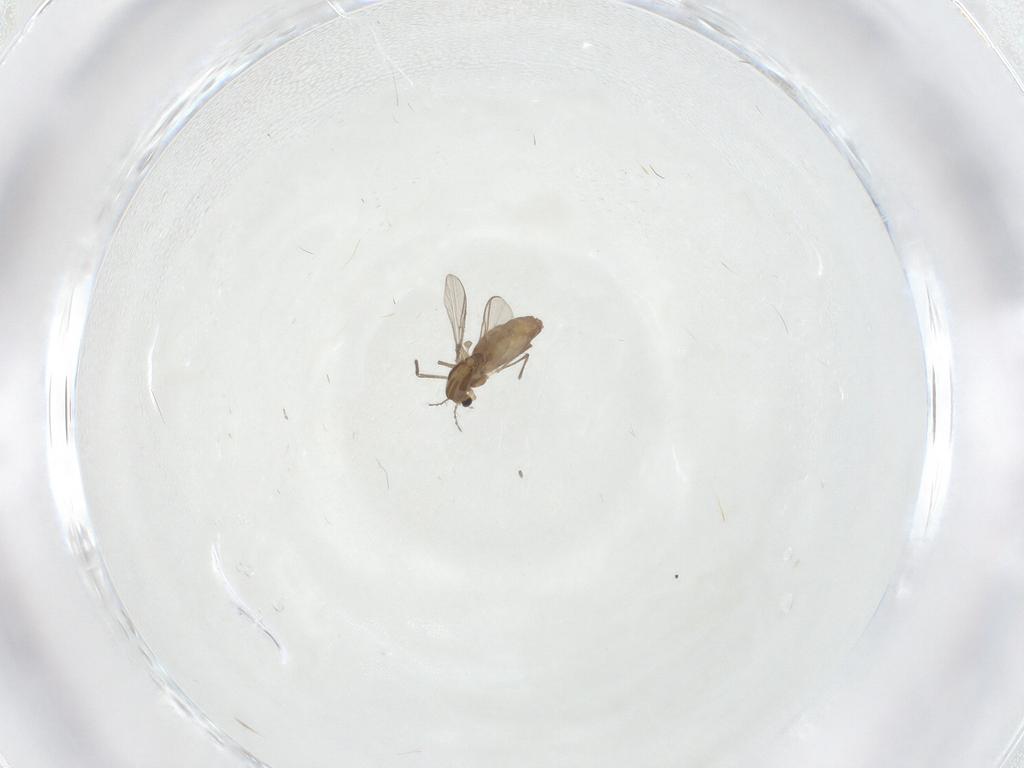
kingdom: Animalia
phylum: Arthropoda
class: Insecta
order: Diptera
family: Chironomidae
